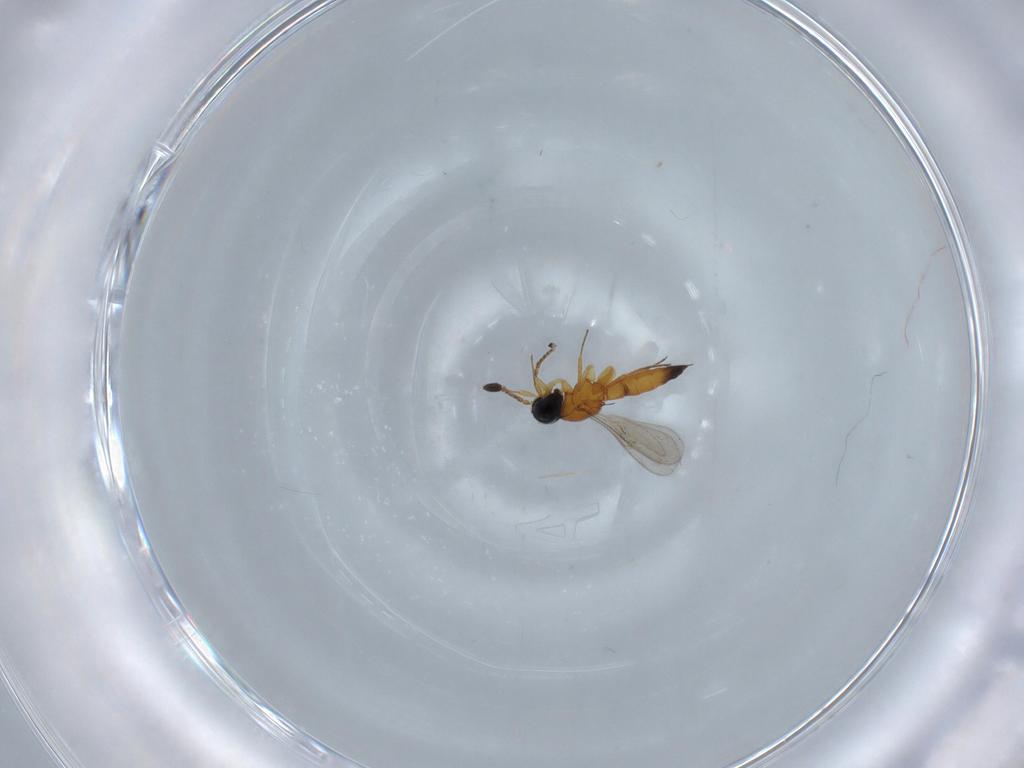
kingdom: Animalia
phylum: Arthropoda
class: Insecta
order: Hymenoptera
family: Scelionidae
